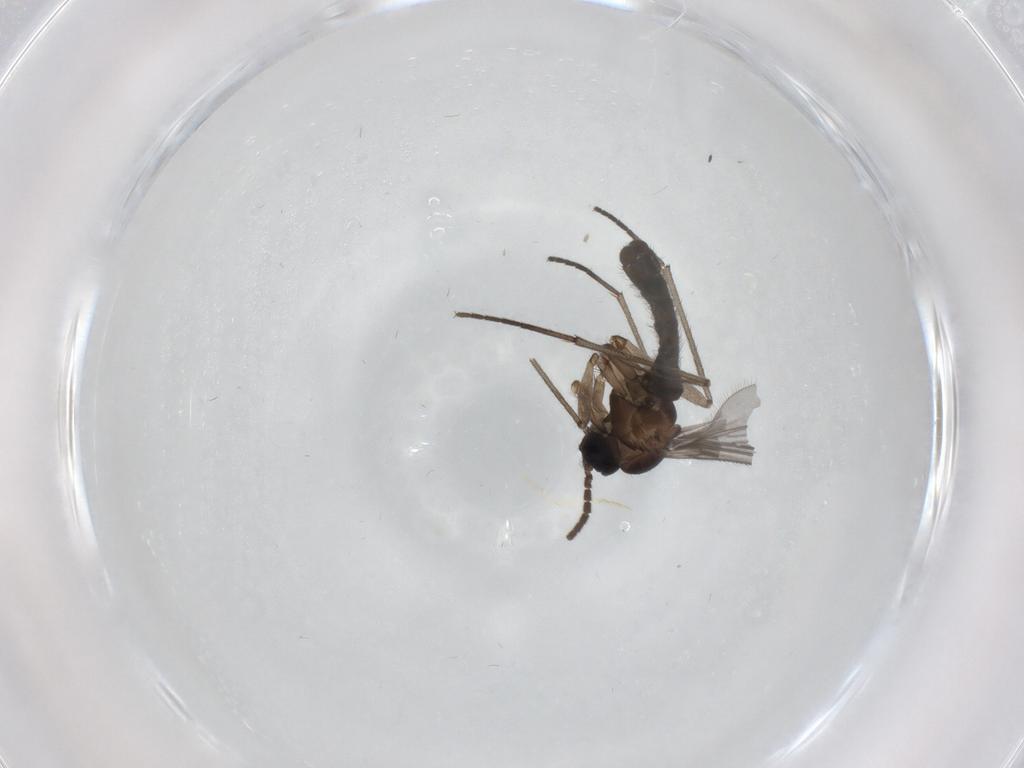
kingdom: Animalia
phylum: Arthropoda
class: Insecta
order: Diptera
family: Sciaridae
